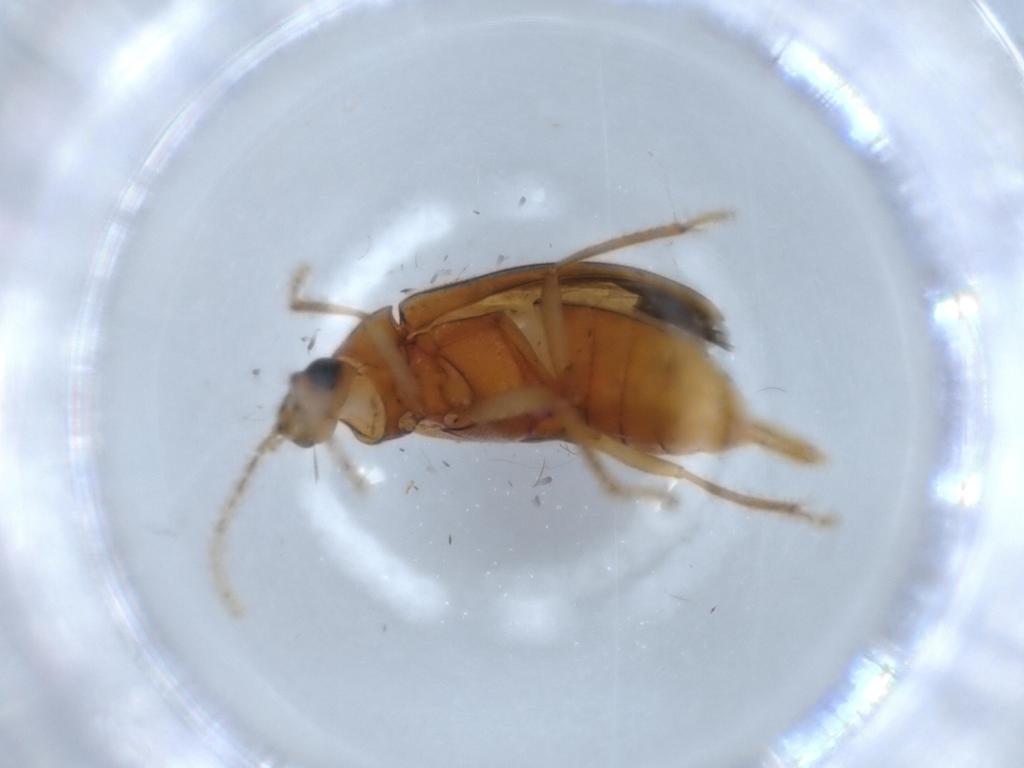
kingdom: Animalia
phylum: Arthropoda
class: Insecta
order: Coleoptera
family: Ptilodactylidae
